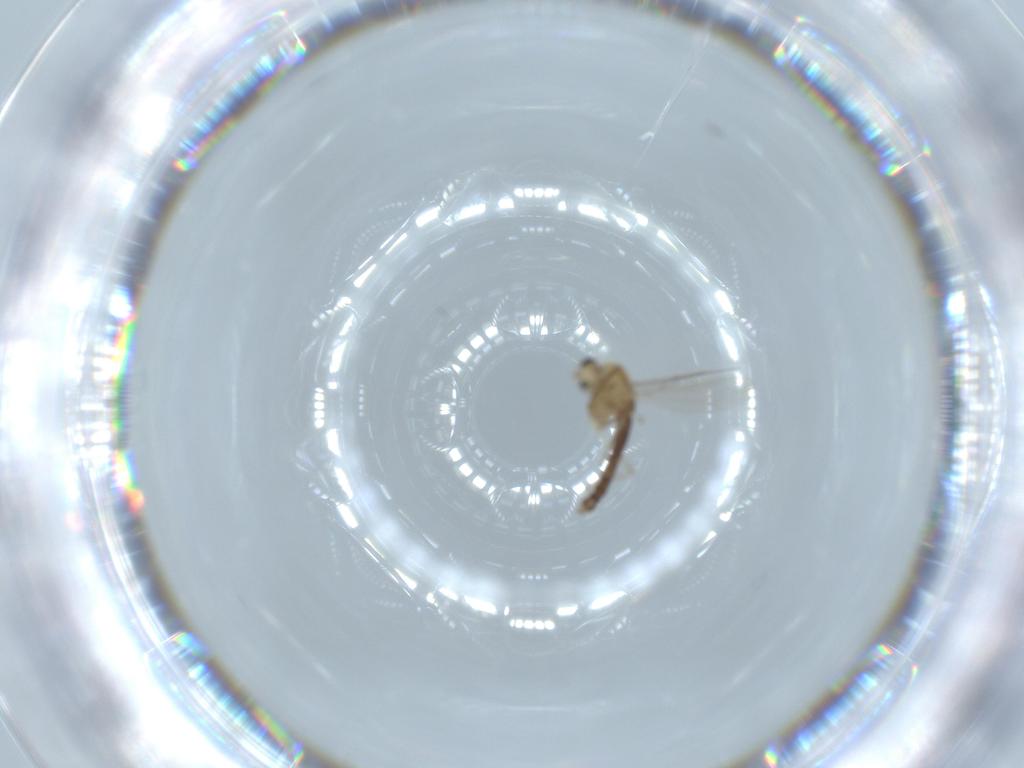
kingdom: Animalia
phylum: Arthropoda
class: Insecta
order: Diptera
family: Chironomidae
